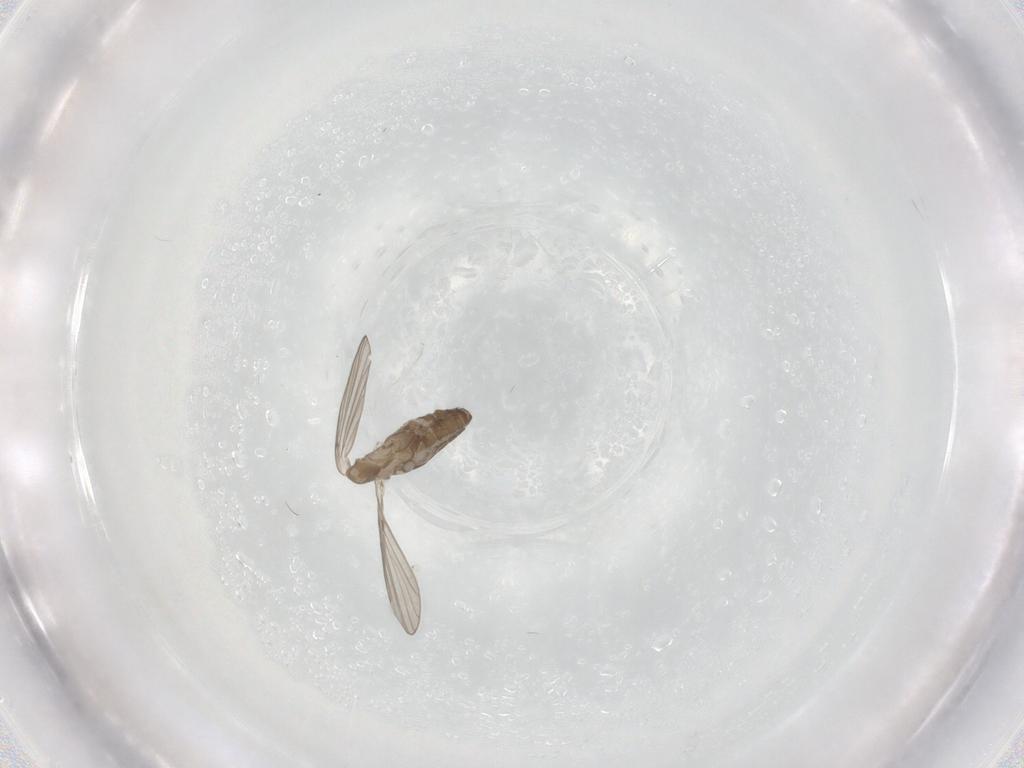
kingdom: Animalia
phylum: Arthropoda
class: Insecta
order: Diptera
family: Psychodidae
